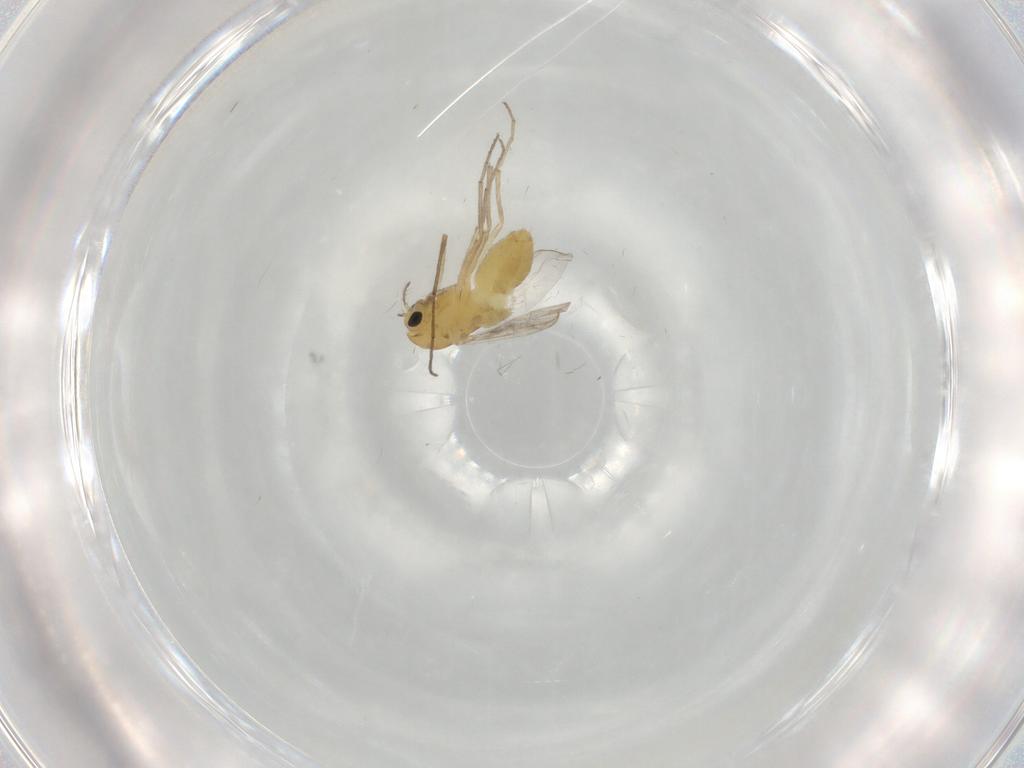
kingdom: Animalia
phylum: Arthropoda
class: Insecta
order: Diptera
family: Chironomidae
